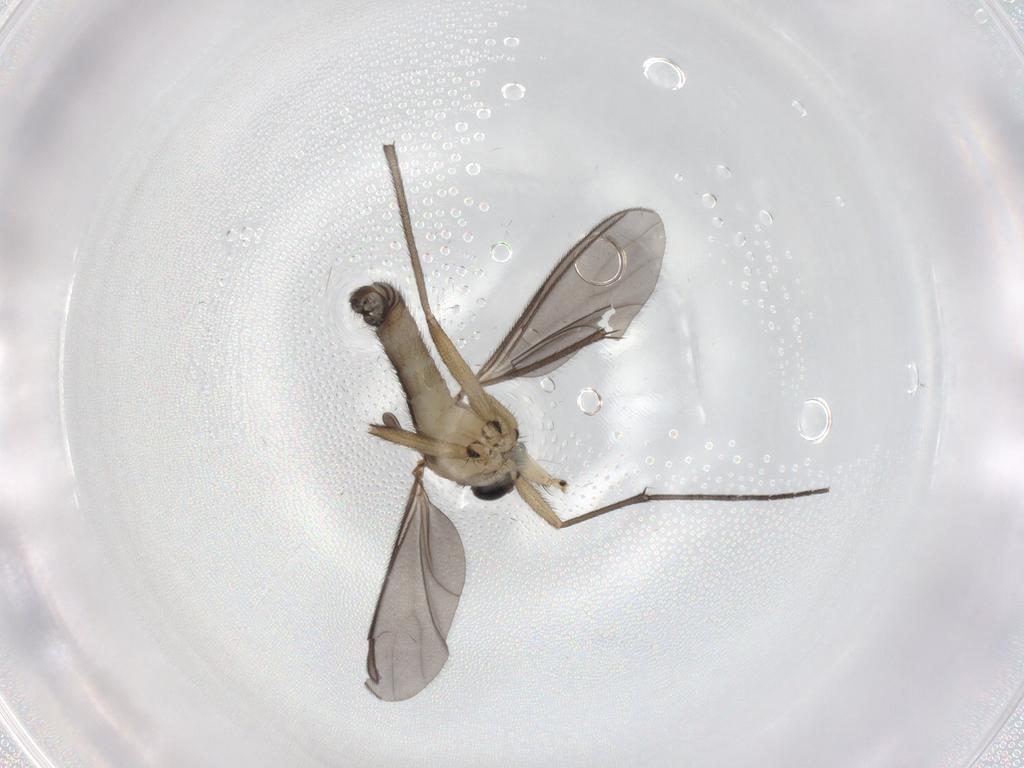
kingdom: Animalia
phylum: Arthropoda
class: Insecta
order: Diptera
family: Sciaridae
